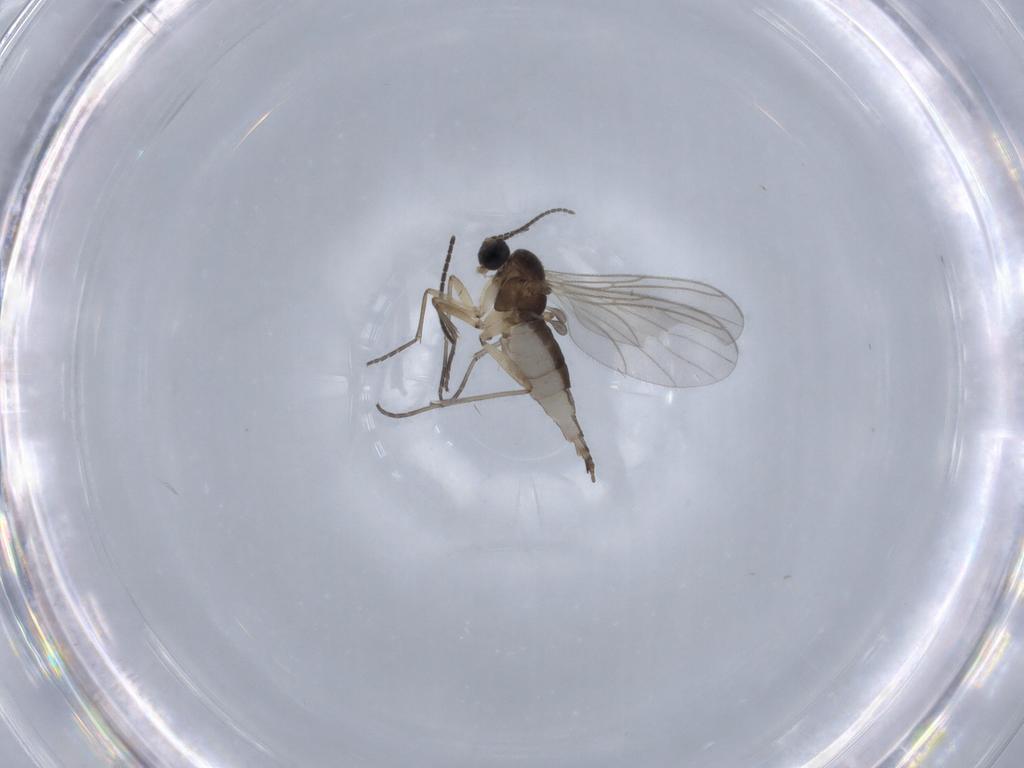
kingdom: Animalia
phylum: Arthropoda
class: Insecta
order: Diptera
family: Sciaridae
